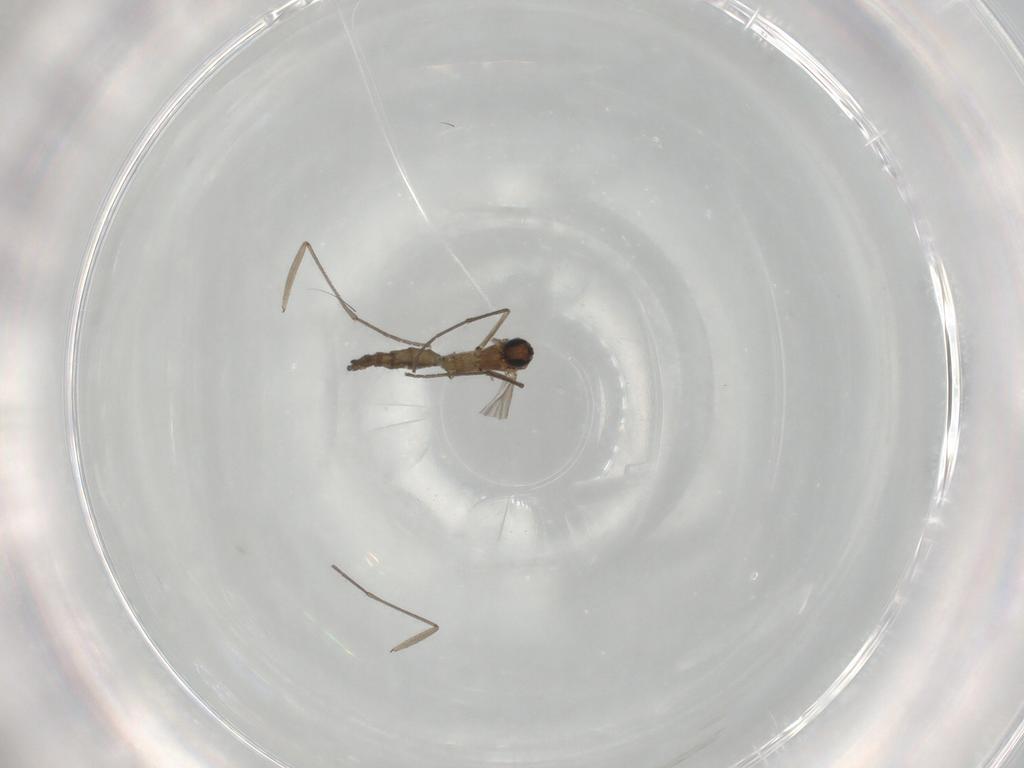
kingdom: Animalia
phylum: Arthropoda
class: Insecta
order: Diptera
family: Sciaridae
